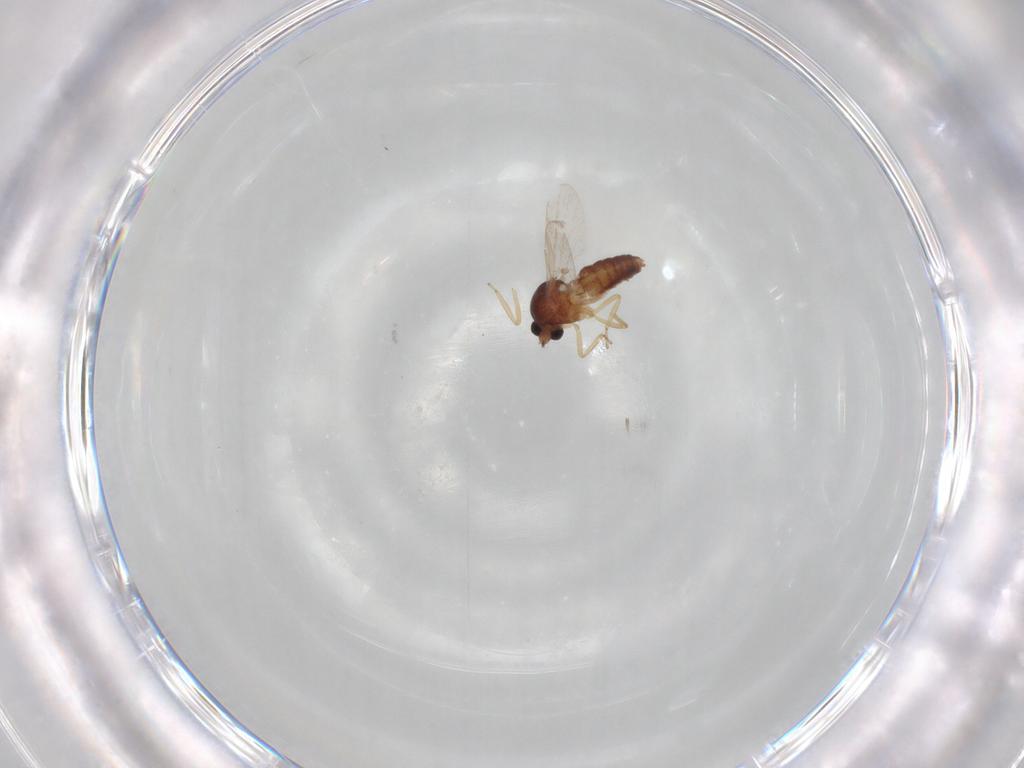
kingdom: Animalia
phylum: Arthropoda
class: Insecta
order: Diptera
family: Ceratopogonidae
